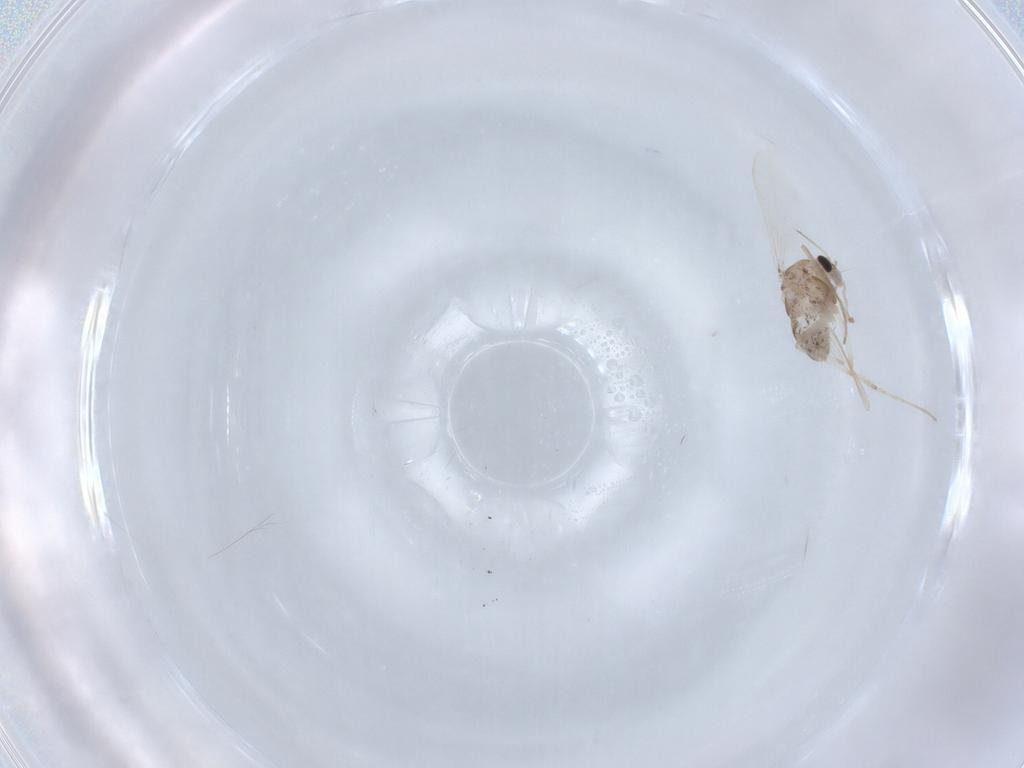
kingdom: Animalia
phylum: Arthropoda
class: Insecta
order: Diptera
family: Chironomidae
